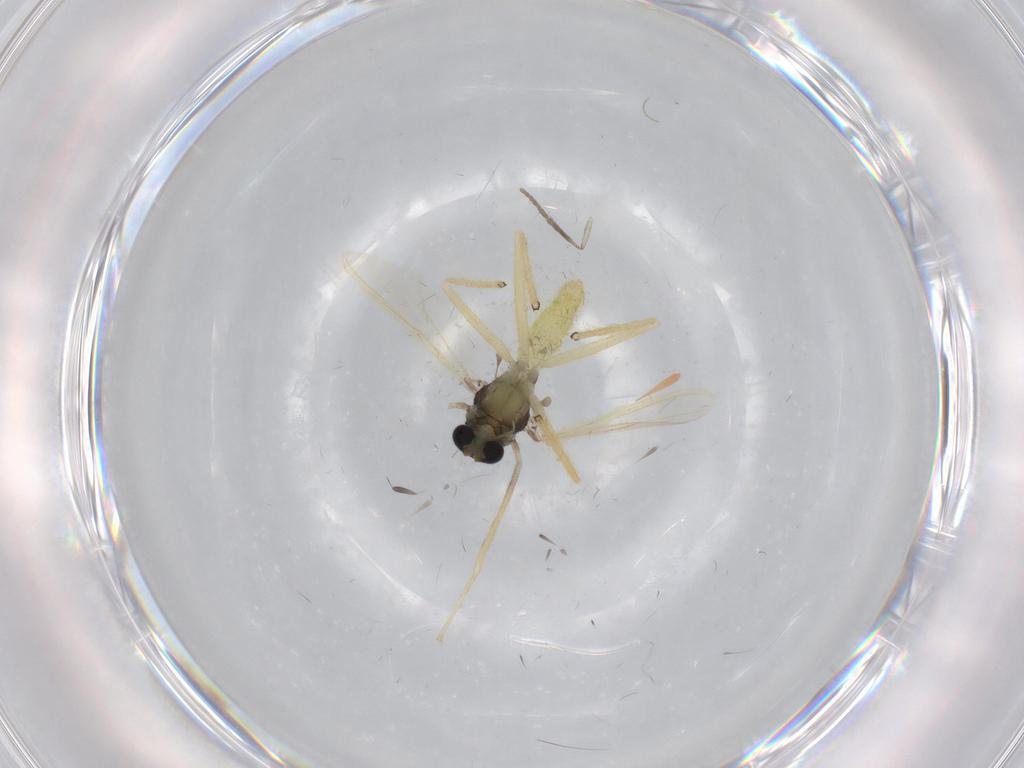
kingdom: Animalia
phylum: Arthropoda
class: Insecta
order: Diptera
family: Chironomidae
